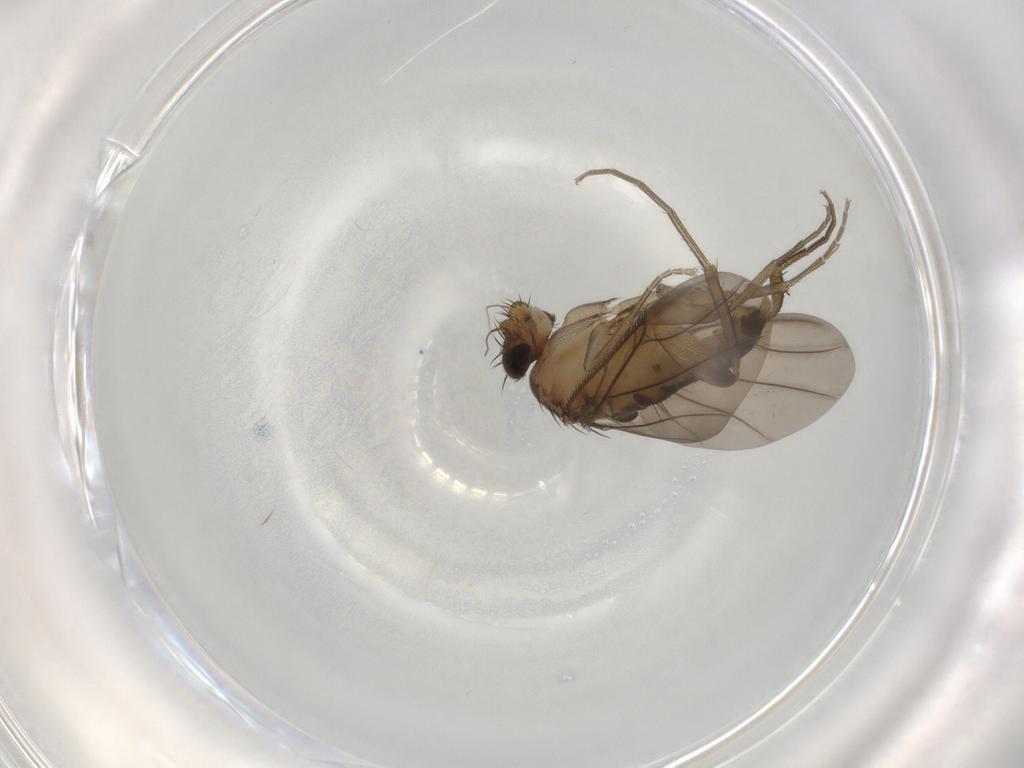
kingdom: Animalia
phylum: Arthropoda
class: Insecta
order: Diptera
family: Phoridae
